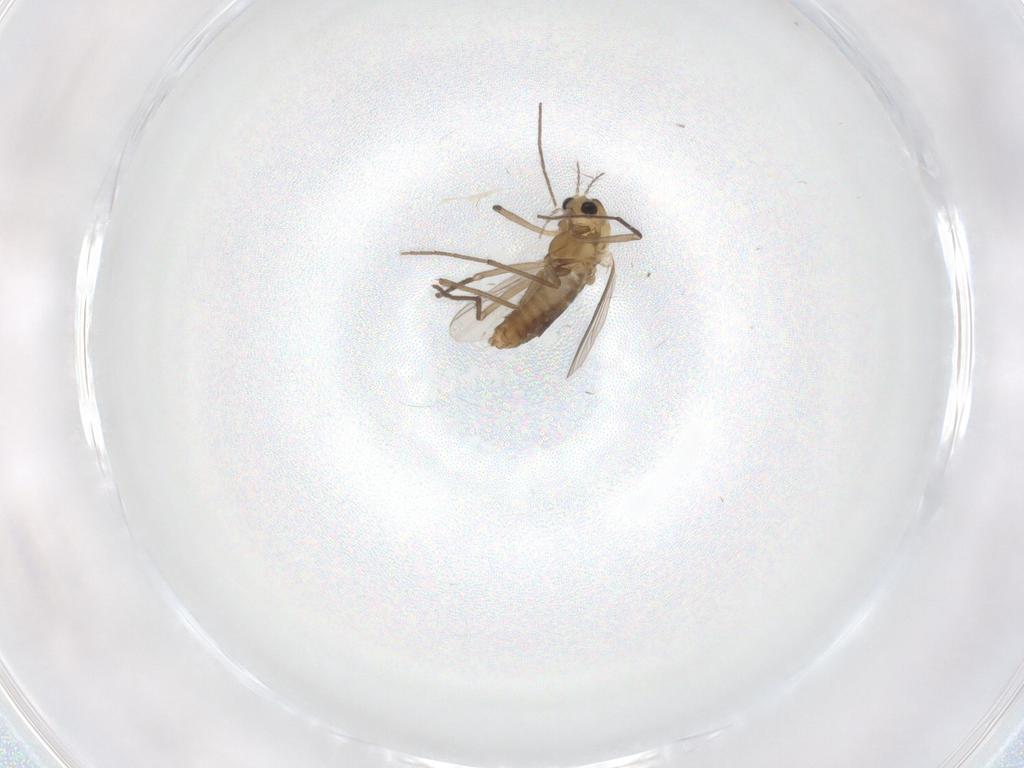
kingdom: Animalia
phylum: Arthropoda
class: Insecta
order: Diptera
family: Chironomidae
